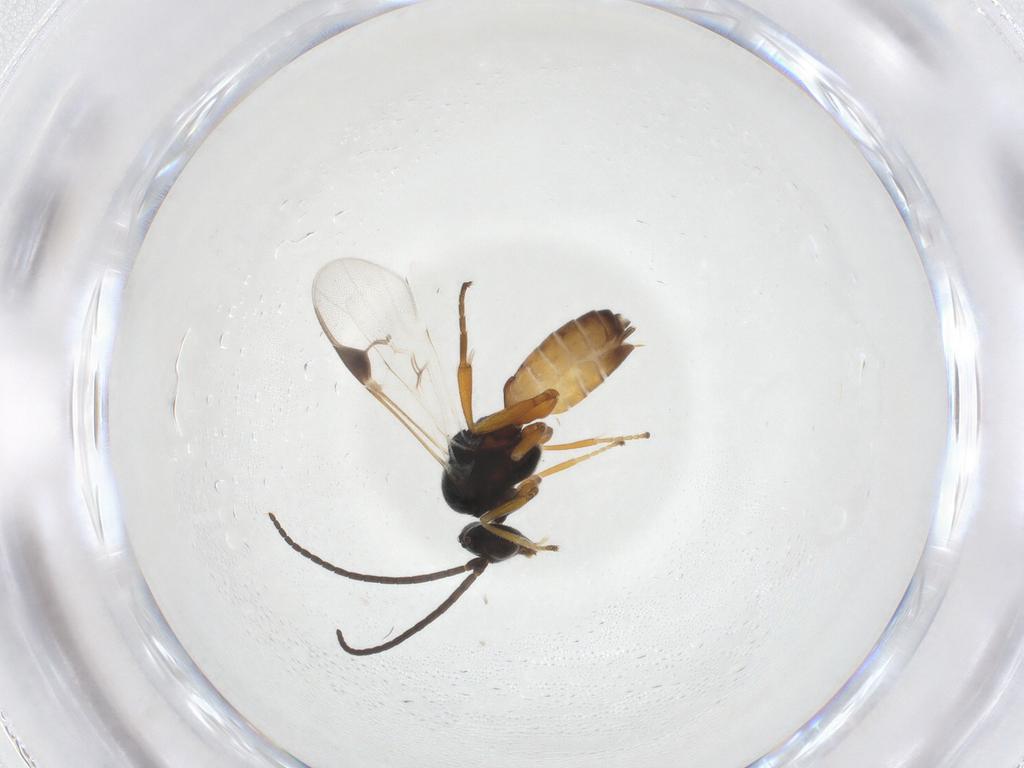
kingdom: Animalia
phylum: Arthropoda
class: Insecta
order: Hymenoptera
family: Braconidae
